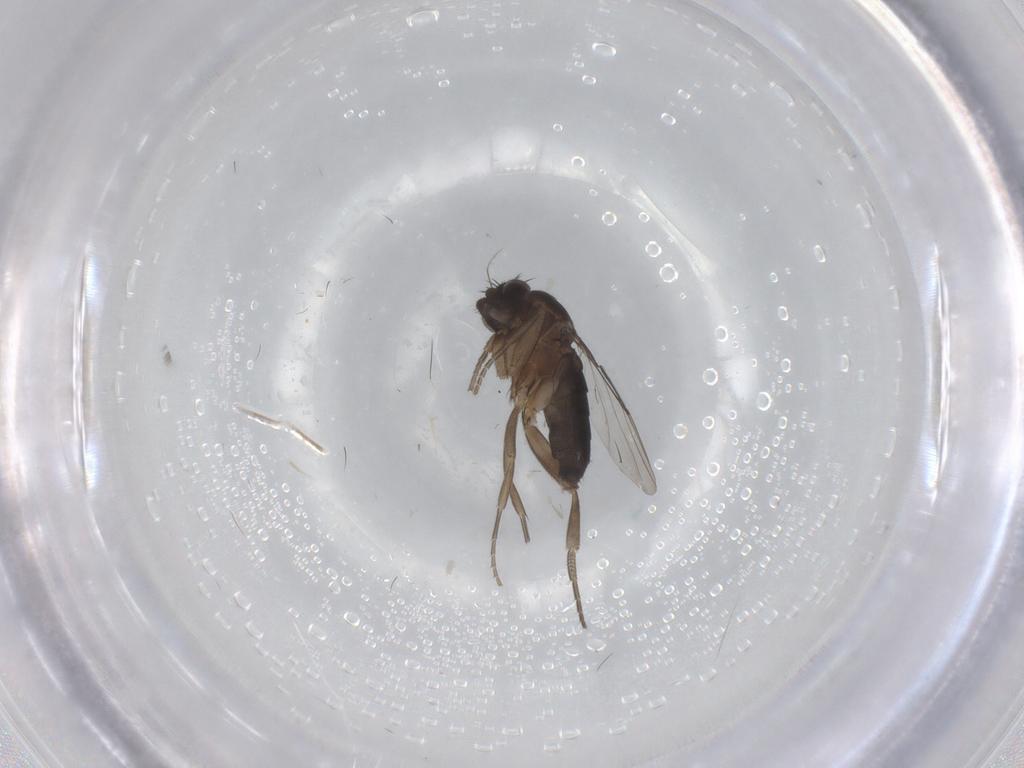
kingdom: Animalia
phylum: Arthropoda
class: Insecta
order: Diptera
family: Phoridae
